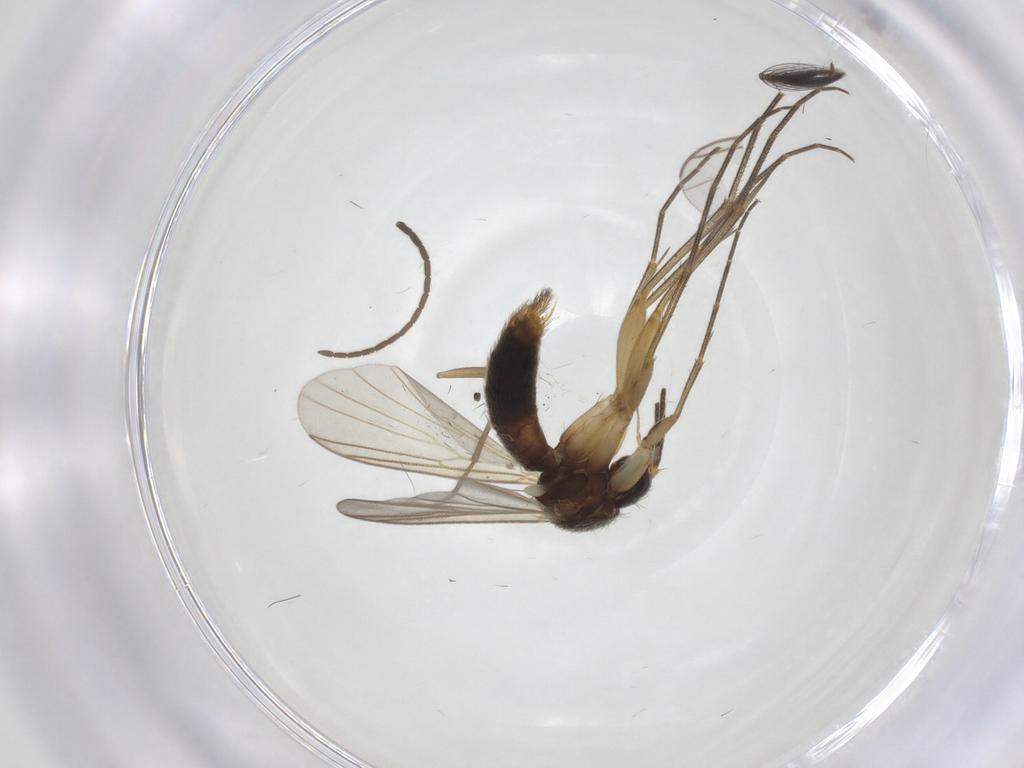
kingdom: Animalia
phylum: Arthropoda
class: Insecta
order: Diptera
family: Sciaridae
